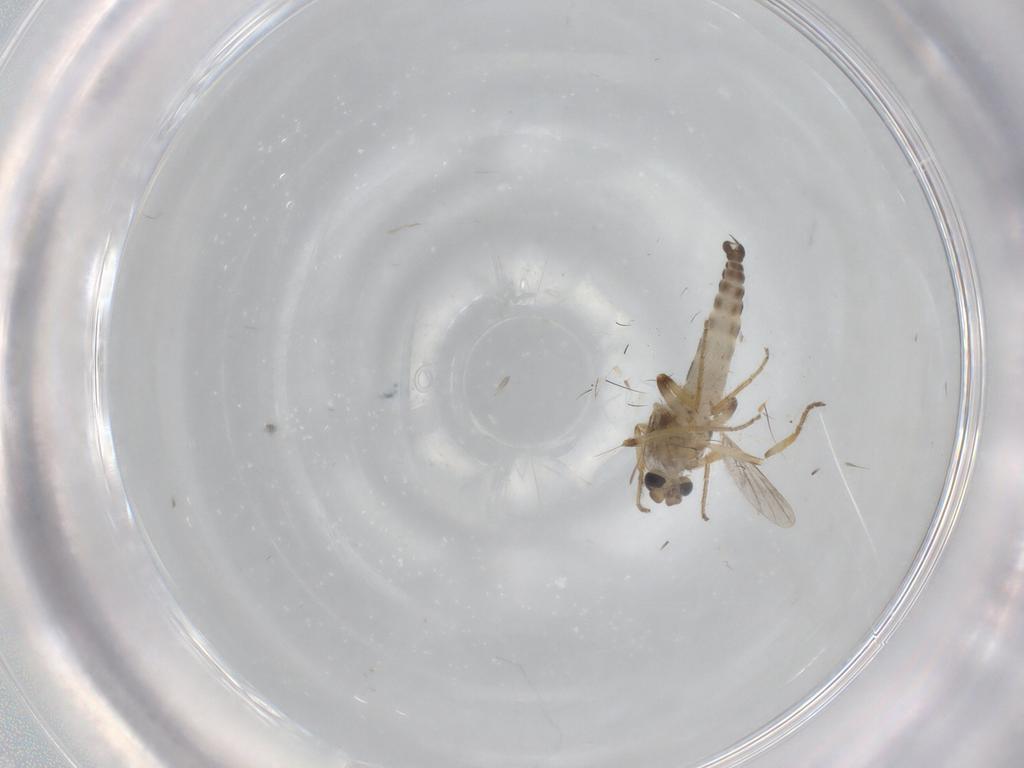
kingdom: Animalia
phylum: Arthropoda
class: Insecta
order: Diptera
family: Ceratopogonidae
